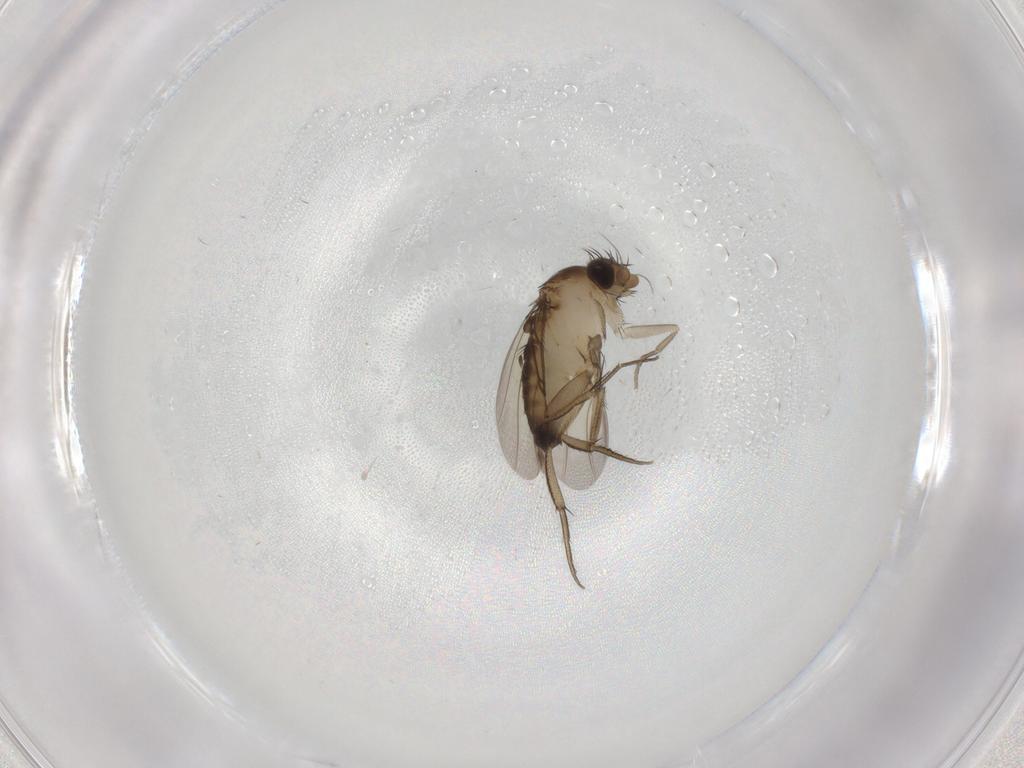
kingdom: Animalia
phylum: Arthropoda
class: Insecta
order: Diptera
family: Phoridae
